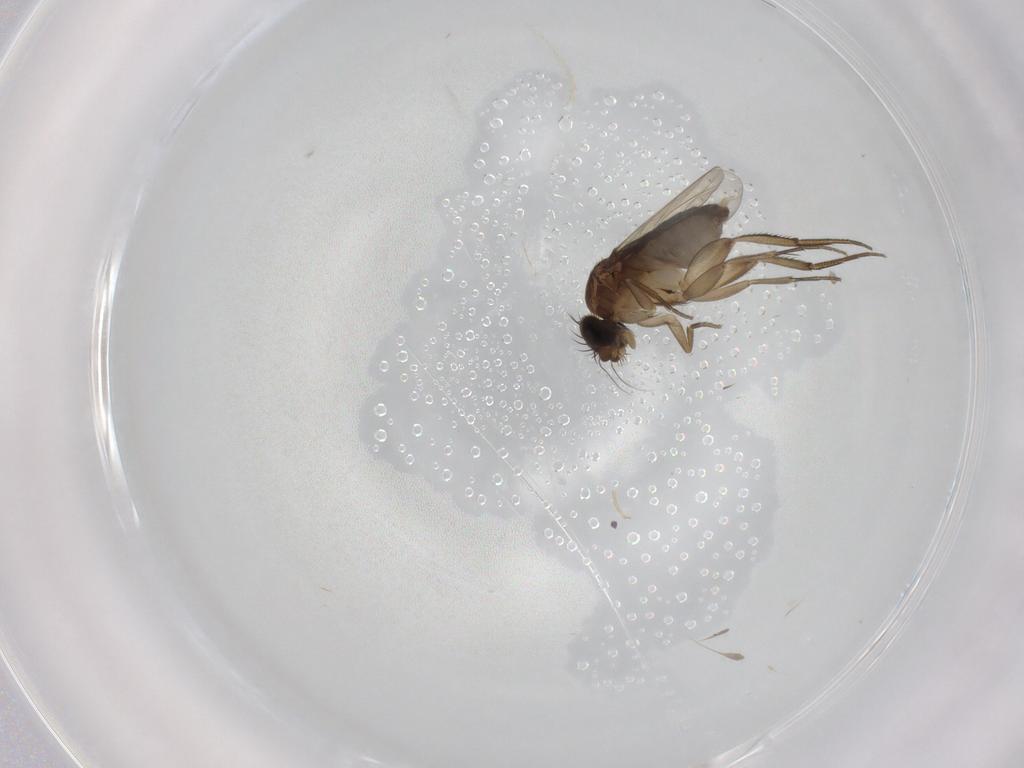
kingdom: Animalia
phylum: Arthropoda
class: Insecta
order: Diptera
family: Phoridae
